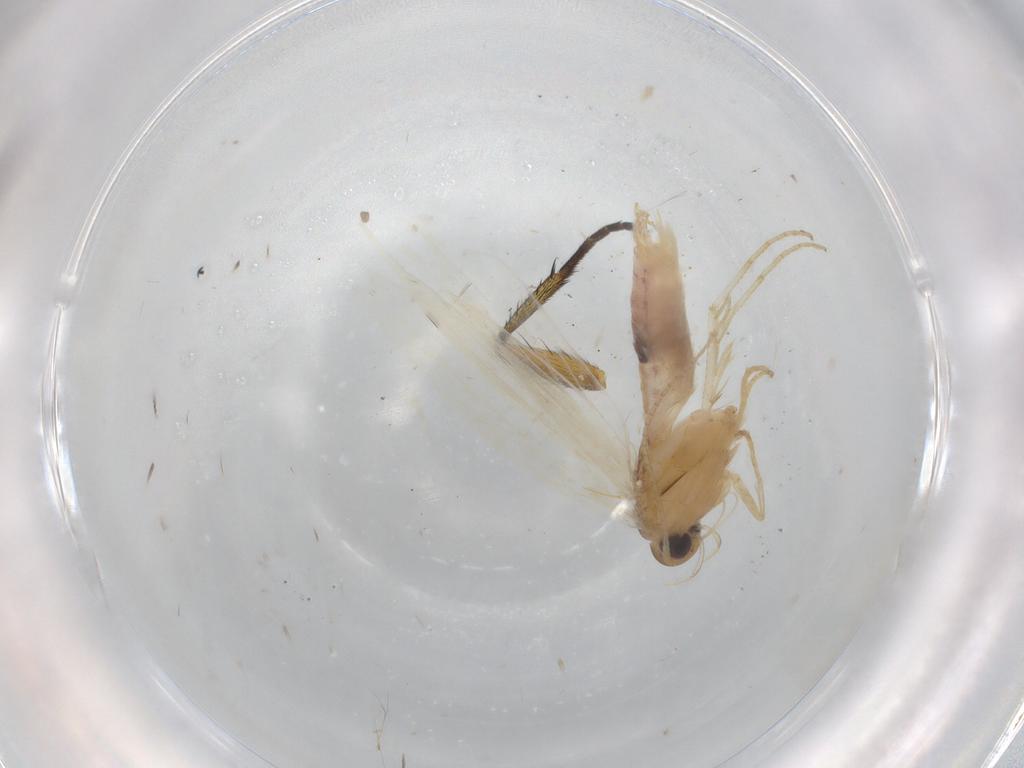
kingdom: Animalia
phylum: Arthropoda
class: Insecta
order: Lepidoptera
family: Gelechiidae
